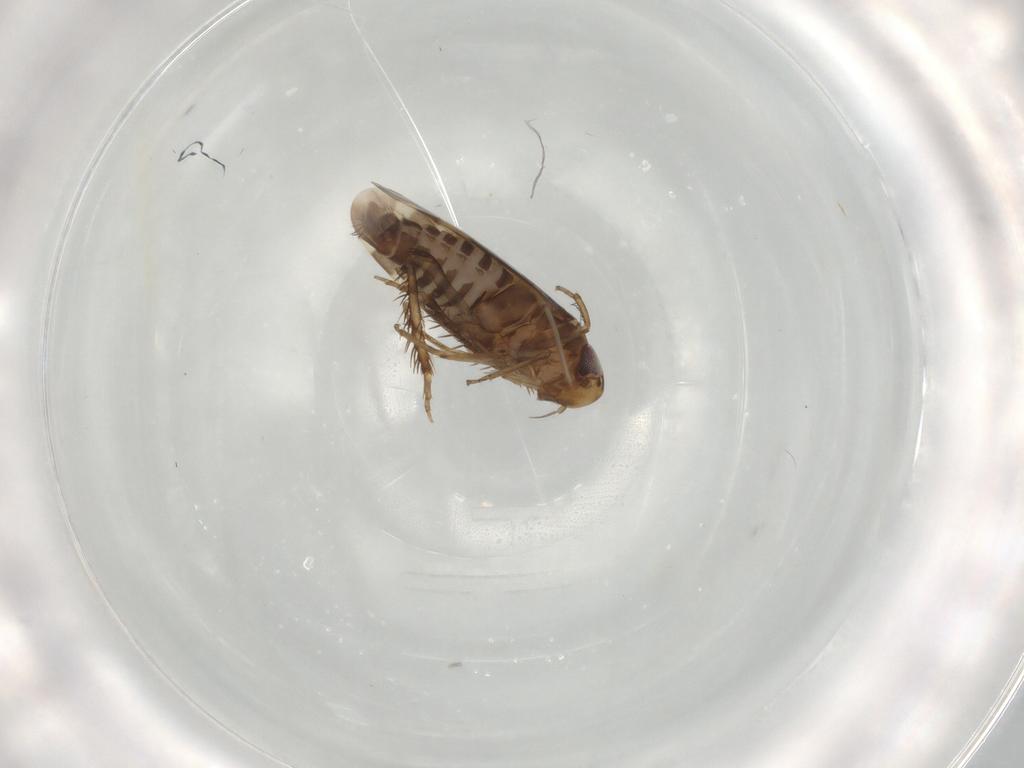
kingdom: Animalia
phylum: Arthropoda
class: Insecta
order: Hemiptera
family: Cicadellidae
